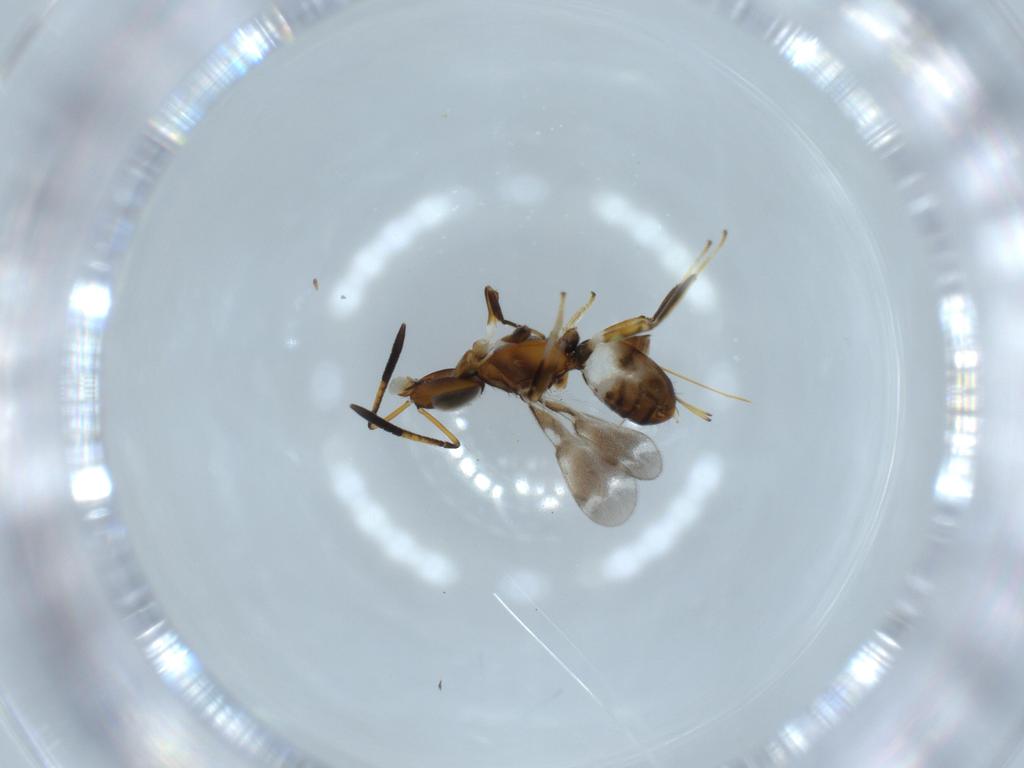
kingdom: Animalia
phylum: Arthropoda
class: Insecta
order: Hymenoptera
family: Eupelmidae
